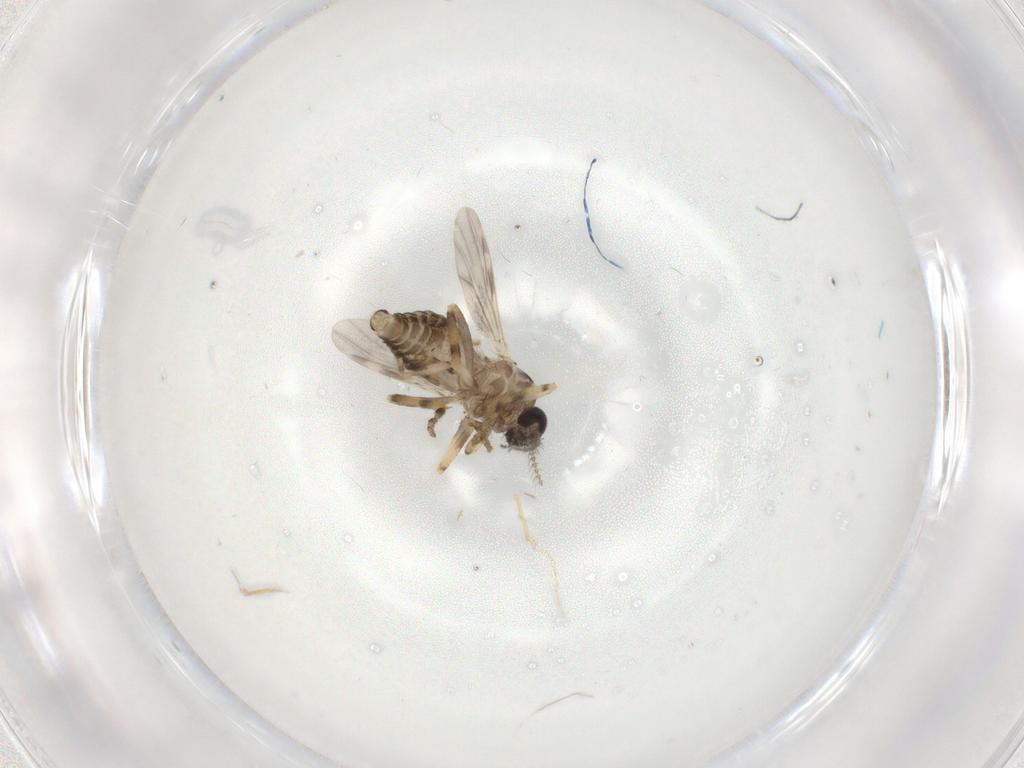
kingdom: Animalia
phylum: Arthropoda
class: Insecta
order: Diptera
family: Ceratopogonidae
